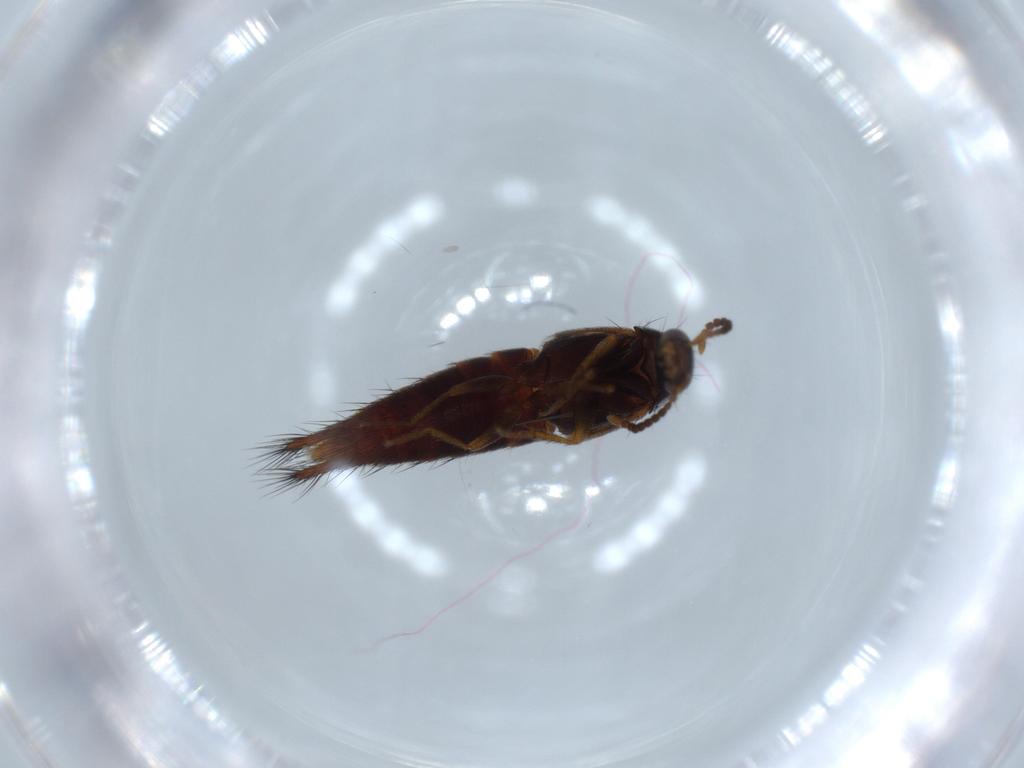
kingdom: Animalia
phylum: Arthropoda
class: Insecta
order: Coleoptera
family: Staphylinidae
